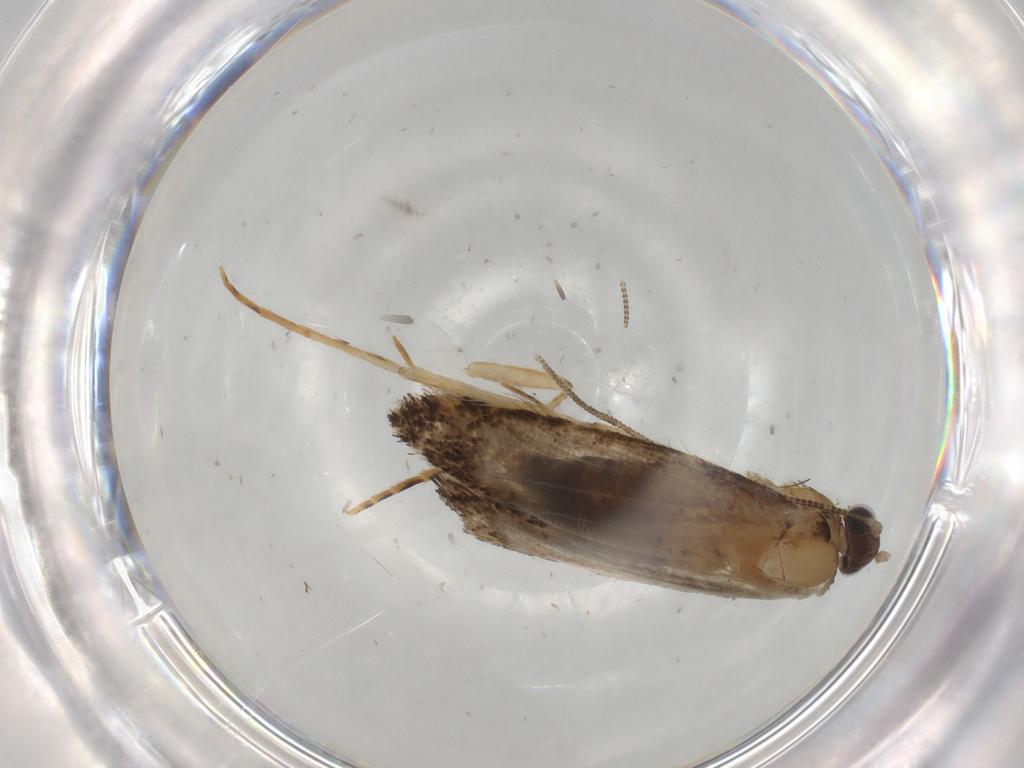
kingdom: Animalia
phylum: Arthropoda
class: Insecta
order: Lepidoptera
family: Tineidae
